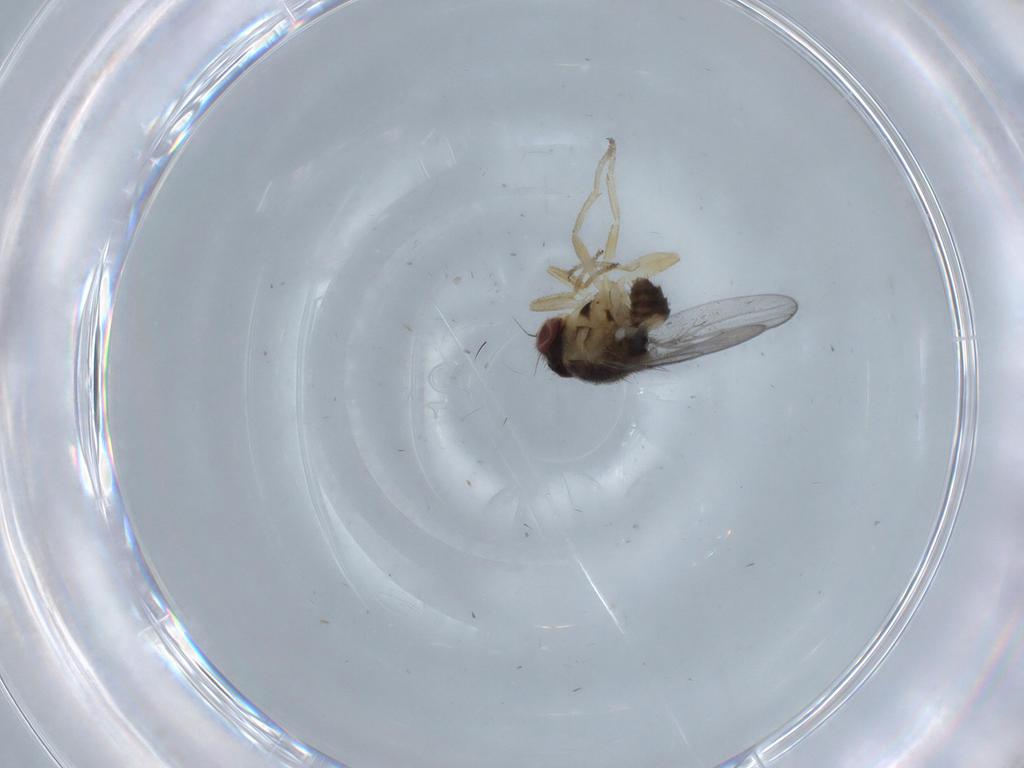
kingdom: Animalia
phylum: Arthropoda
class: Insecta
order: Diptera
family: Chloropidae
